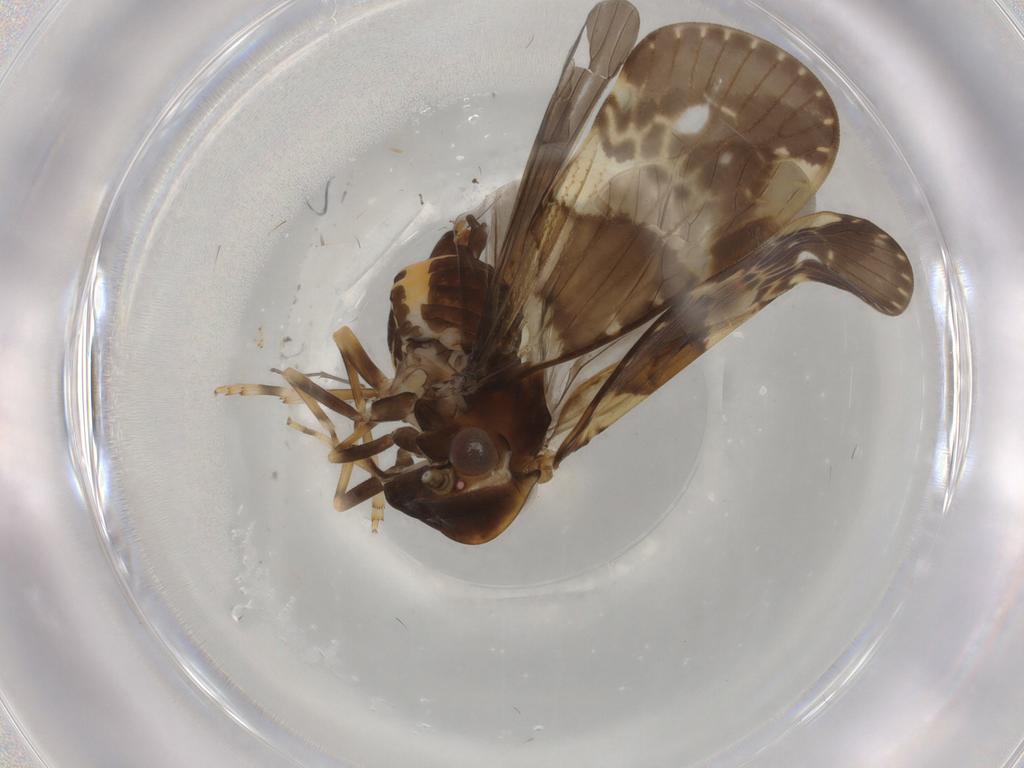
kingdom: Animalia
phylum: Arthropoda
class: Insecta
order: Hemiptera
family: Cixiidae
